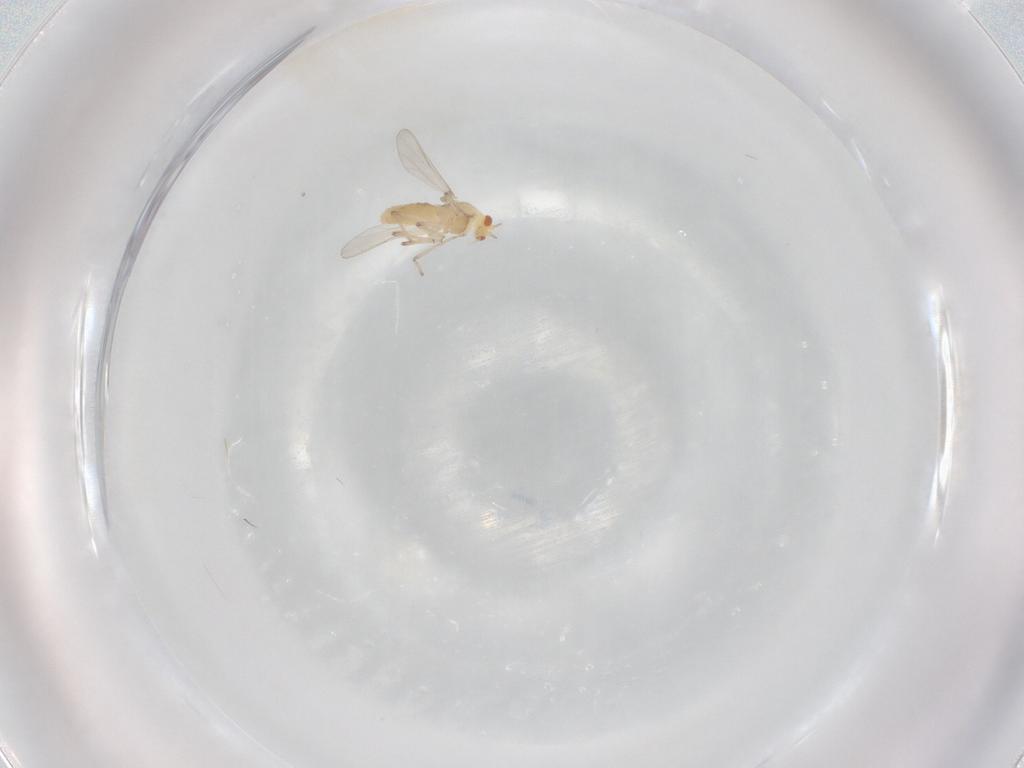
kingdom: Animalia
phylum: Arthropoda
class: Insecta
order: Diptera
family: Chironomidae
